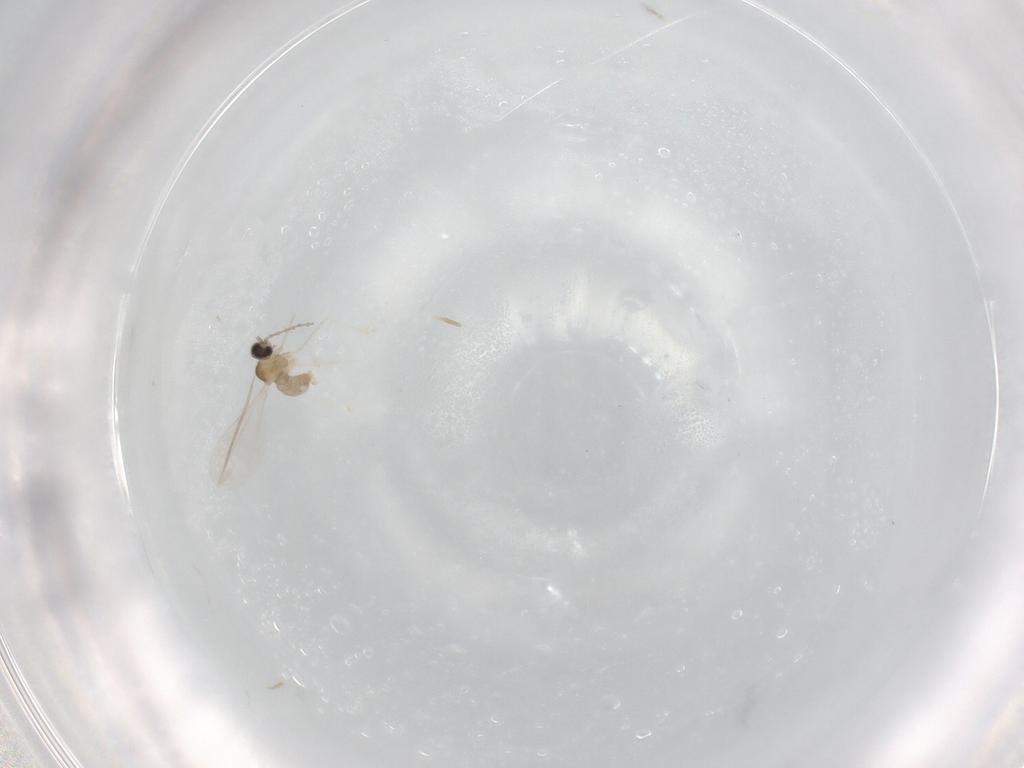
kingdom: Animalia
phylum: Arthropoda
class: Insecta
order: Diptera
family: Cecidomyiidae
